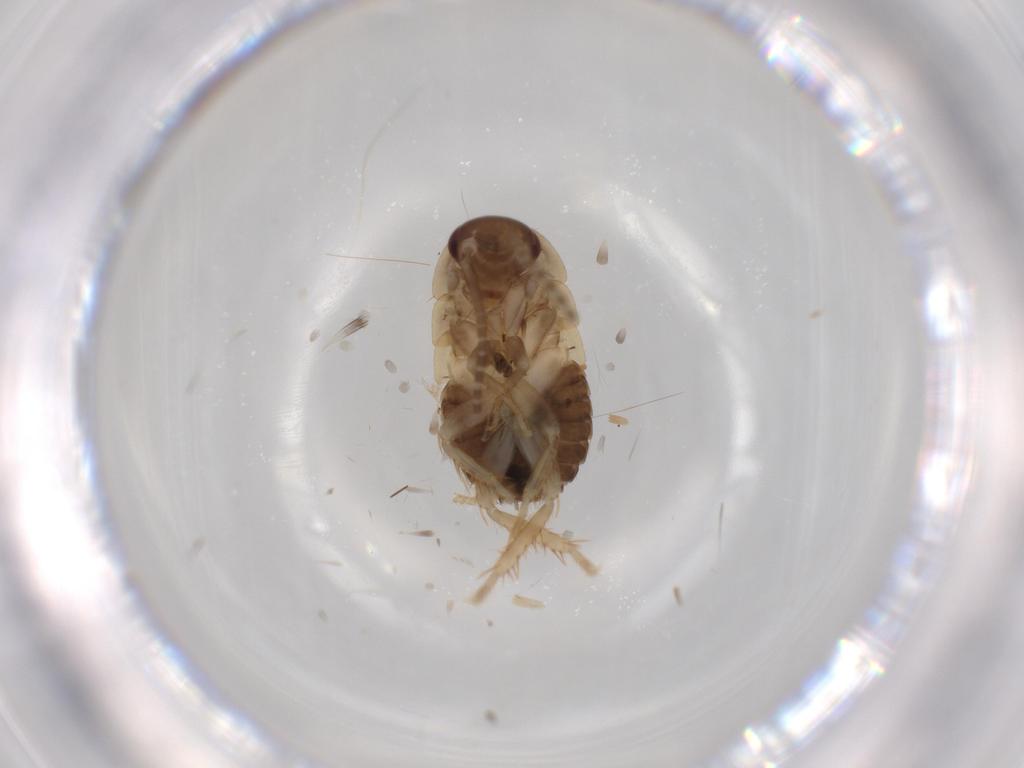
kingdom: Animalia
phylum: Arthropoda
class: Insecta
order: Blattodea
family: Ectobiidae
